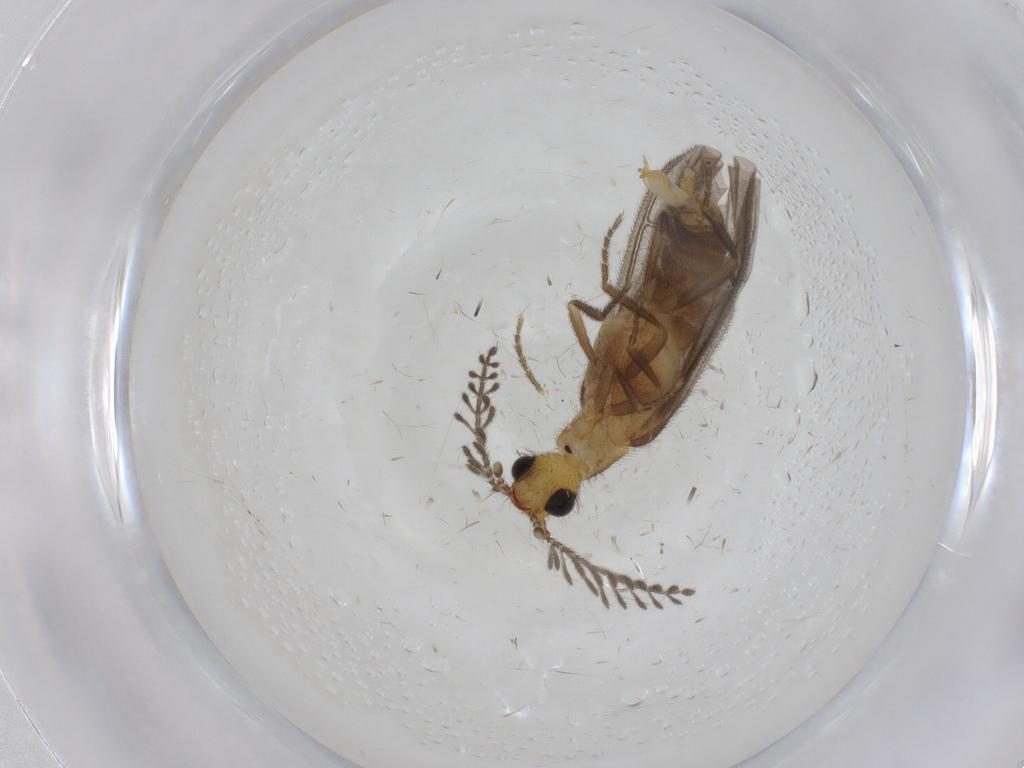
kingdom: Animalia
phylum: Arthropoda
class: Insecta
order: Coleoptera
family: Phengodidae
